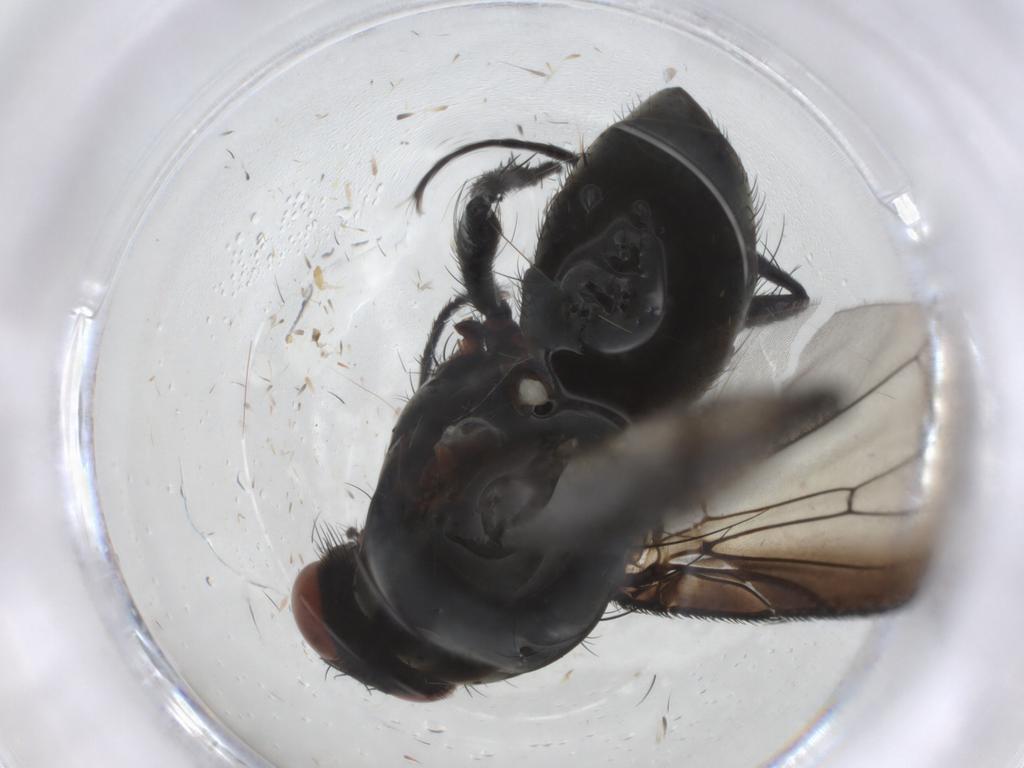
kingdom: Animalia
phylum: Arthropoda
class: Insecta
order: Diptera
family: Anthomyiidae
